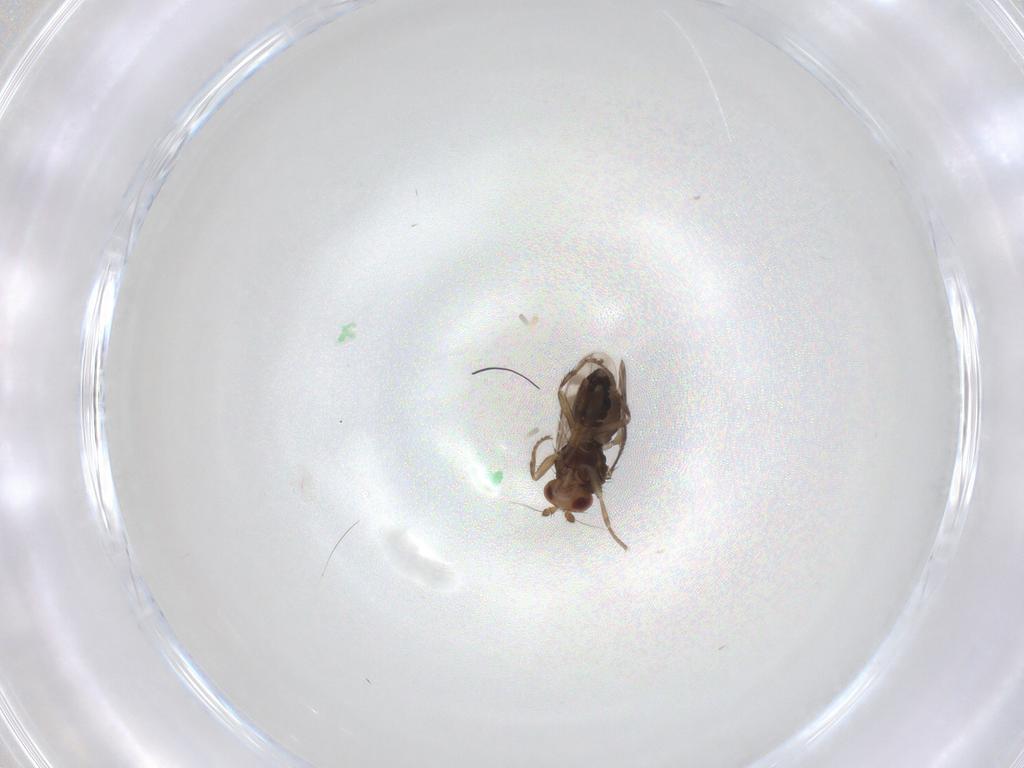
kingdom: Animalia
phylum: Arthropoda
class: Insecta
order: Diptera
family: Sphaeroceridae
